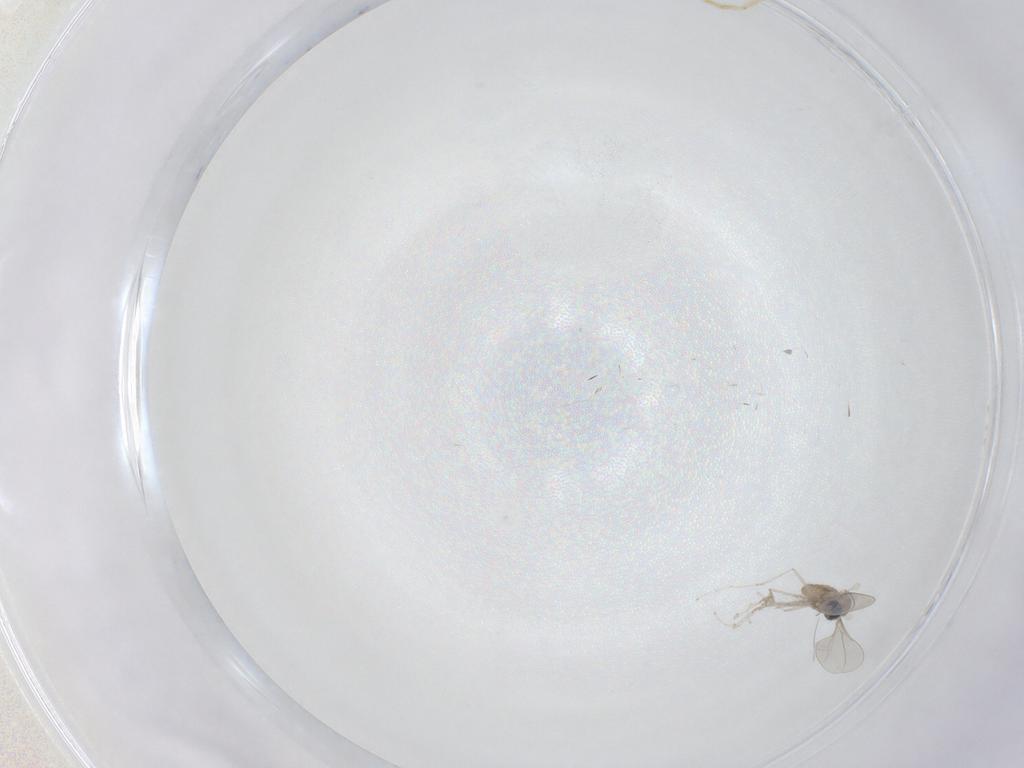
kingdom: Animalia
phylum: Arthropoda
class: Insecta
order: Diptera
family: Cecidomyiidae
